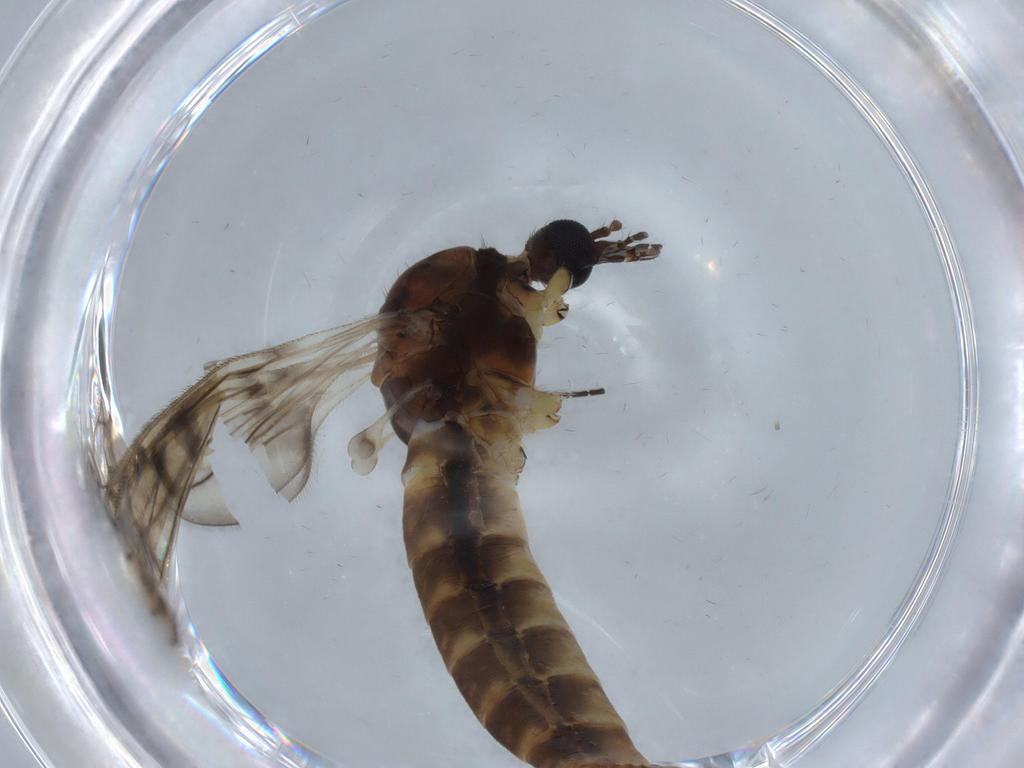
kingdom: Animalia
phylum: Arthropoda
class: Insecta
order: Diptera
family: Limoniidae
